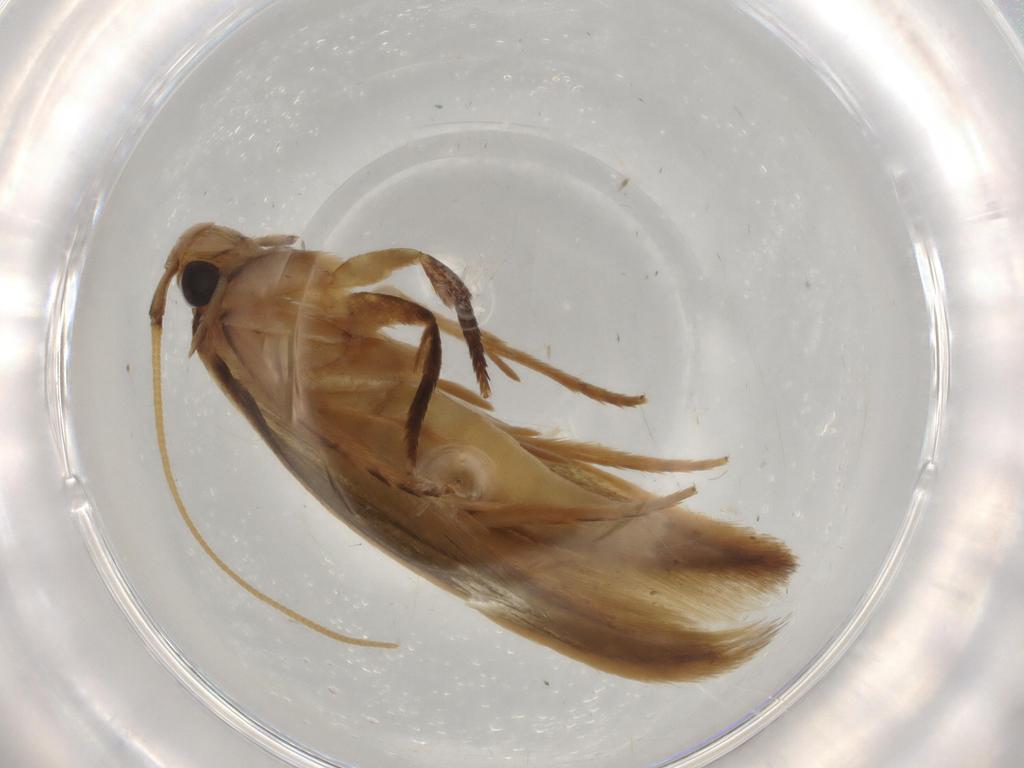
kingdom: Animalia
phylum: Arthropoda
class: Insecta
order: Lepidoptera
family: Tineidae
